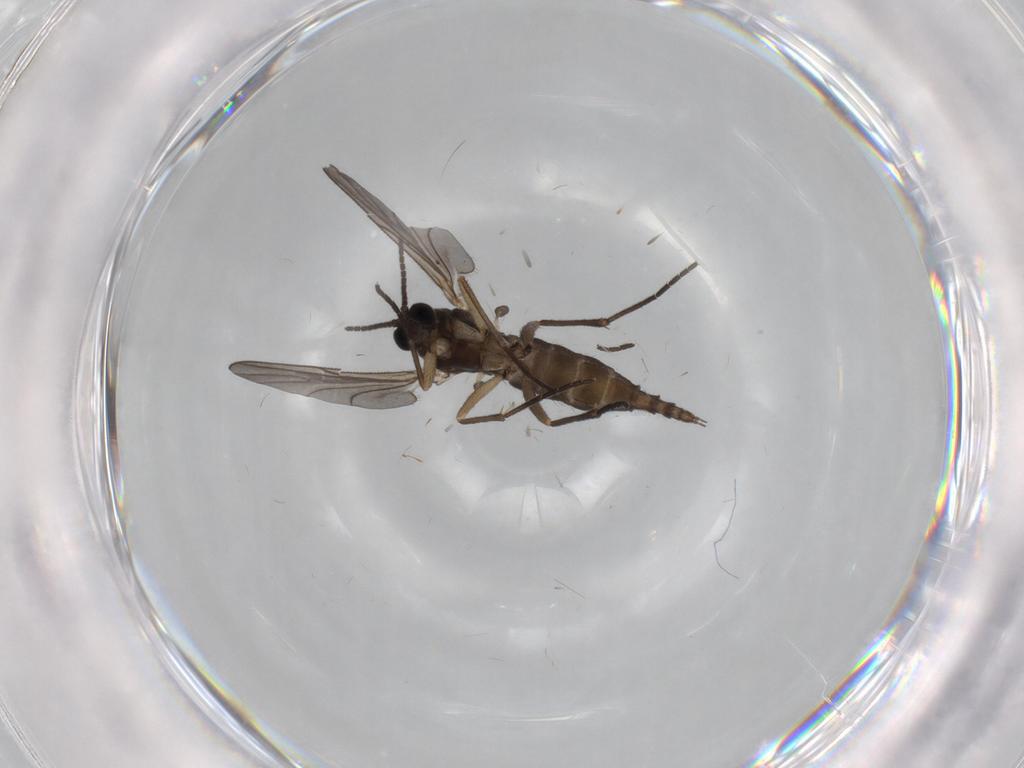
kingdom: Animalia
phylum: Arthropoda
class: Insecta
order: Diptera
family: Sciaridae
